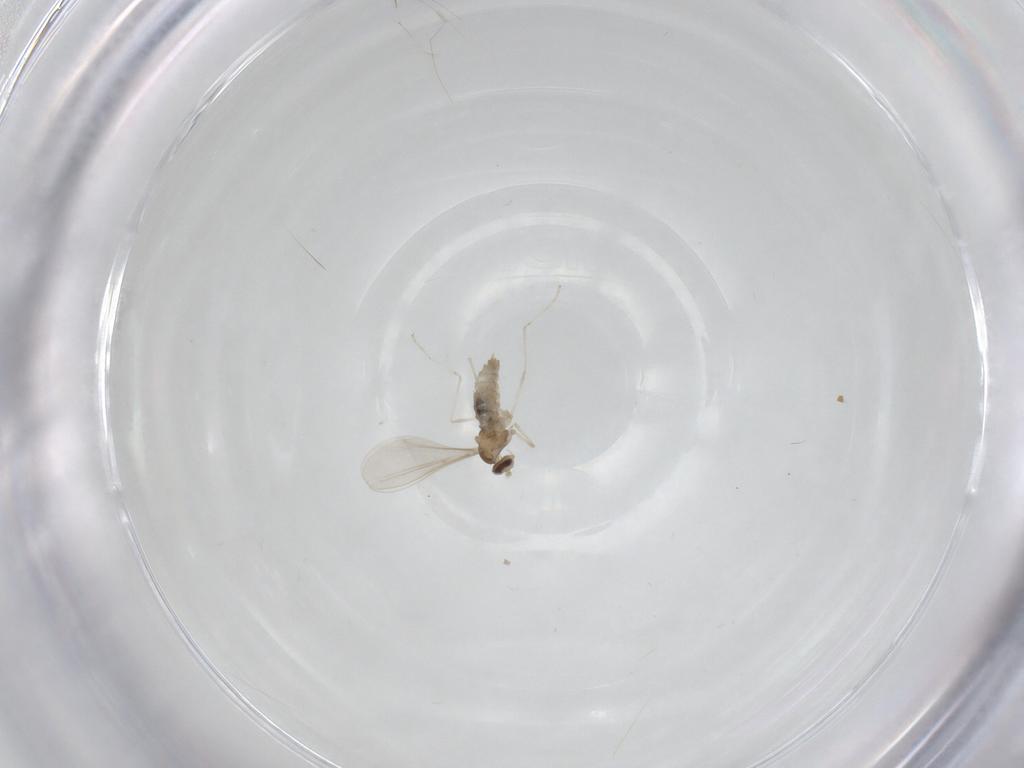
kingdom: Animalia
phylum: Arthropoda
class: Insecta
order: Diptera
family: Cecidomyiidae
